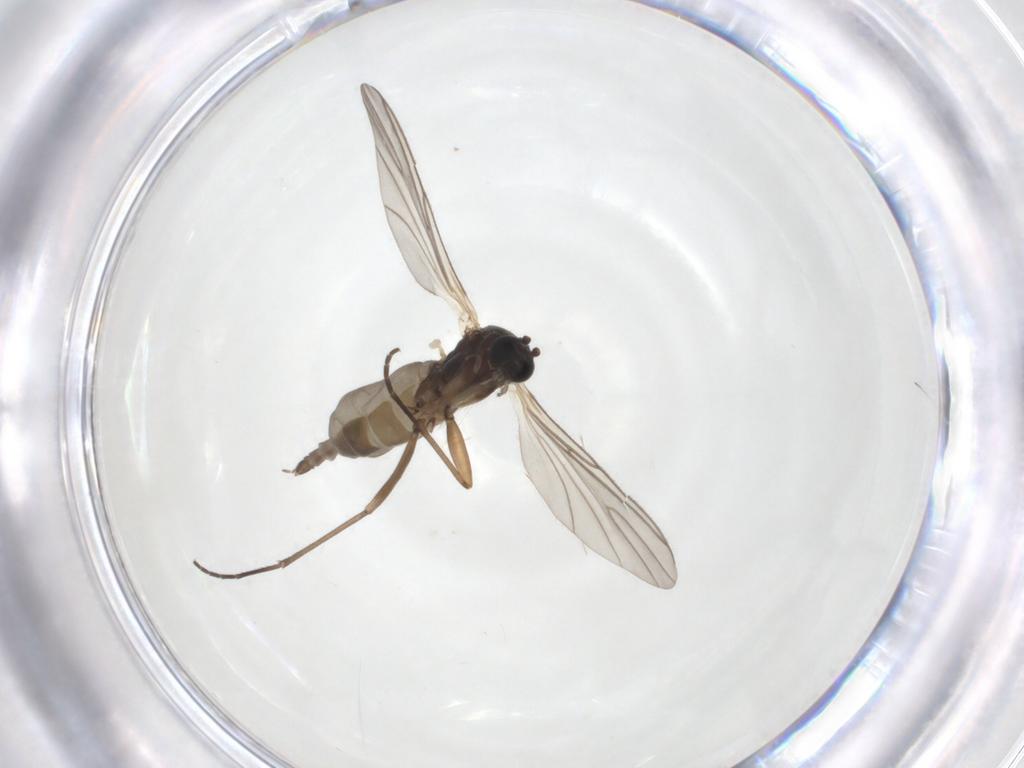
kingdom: Animalia
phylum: Arthropoda
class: Insecta
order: Diptera
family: Sciaridae
